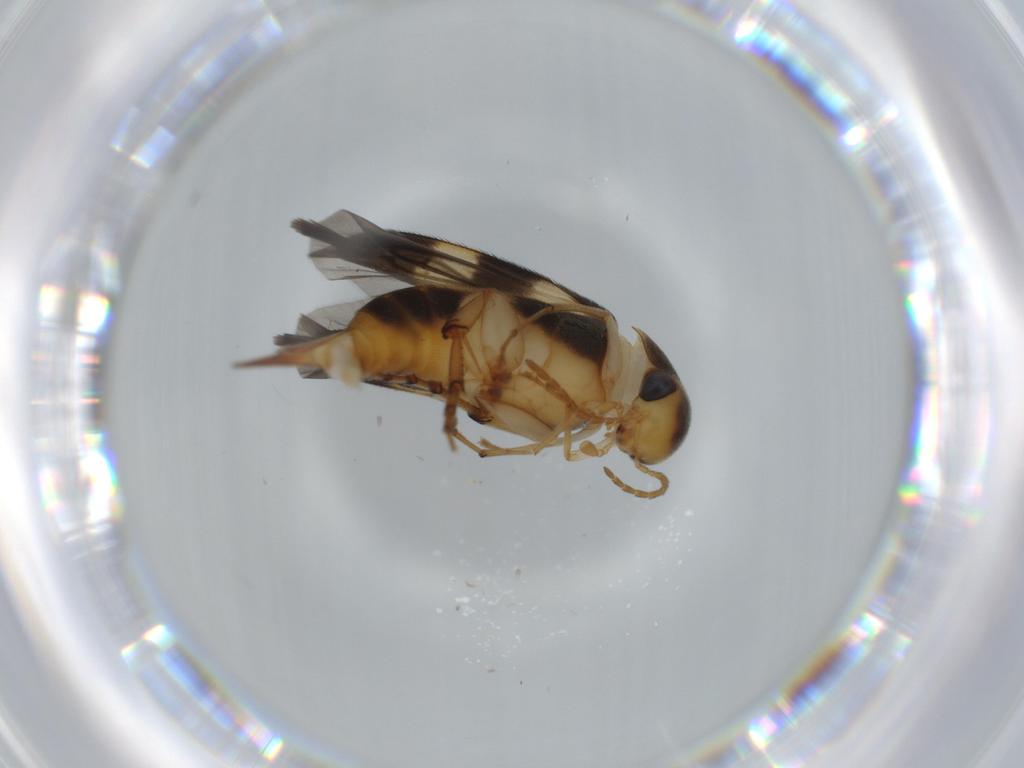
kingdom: Animalia
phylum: Arthropoda
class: Insecta
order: Coleoptera
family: Mordellidae
